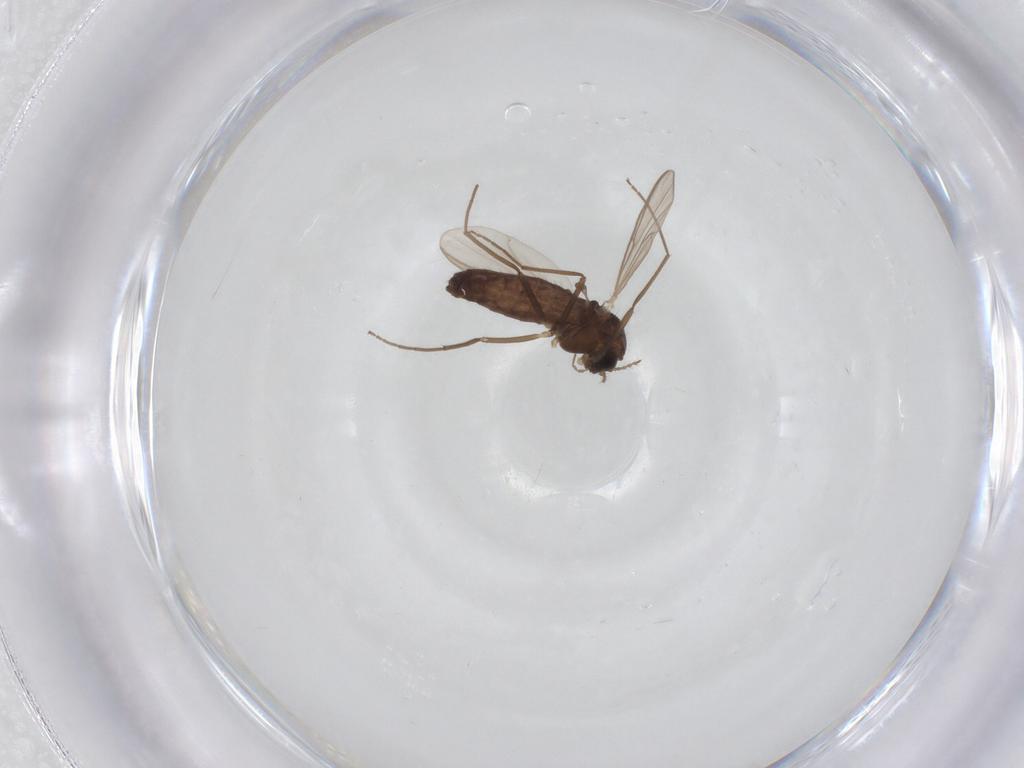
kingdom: Animalia
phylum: Arthropoda
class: Insecta
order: Diptera
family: Chironomidae
